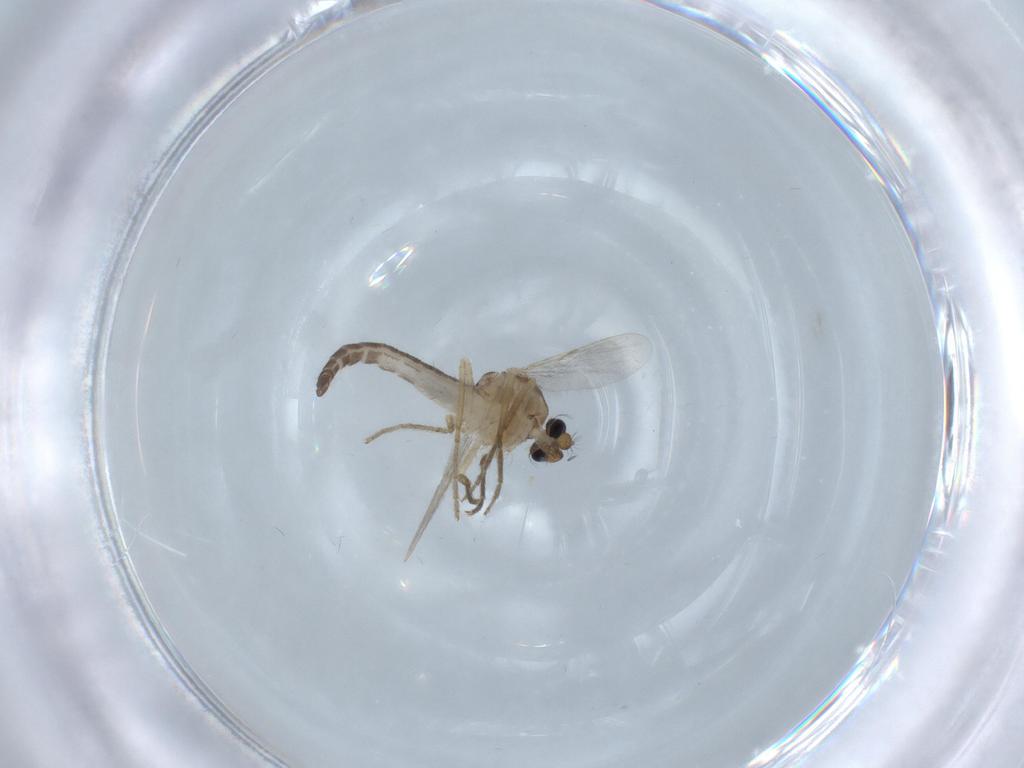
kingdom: Animalia
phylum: Arthropoda
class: Insecta
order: Diptera
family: Ceratopogonidae
